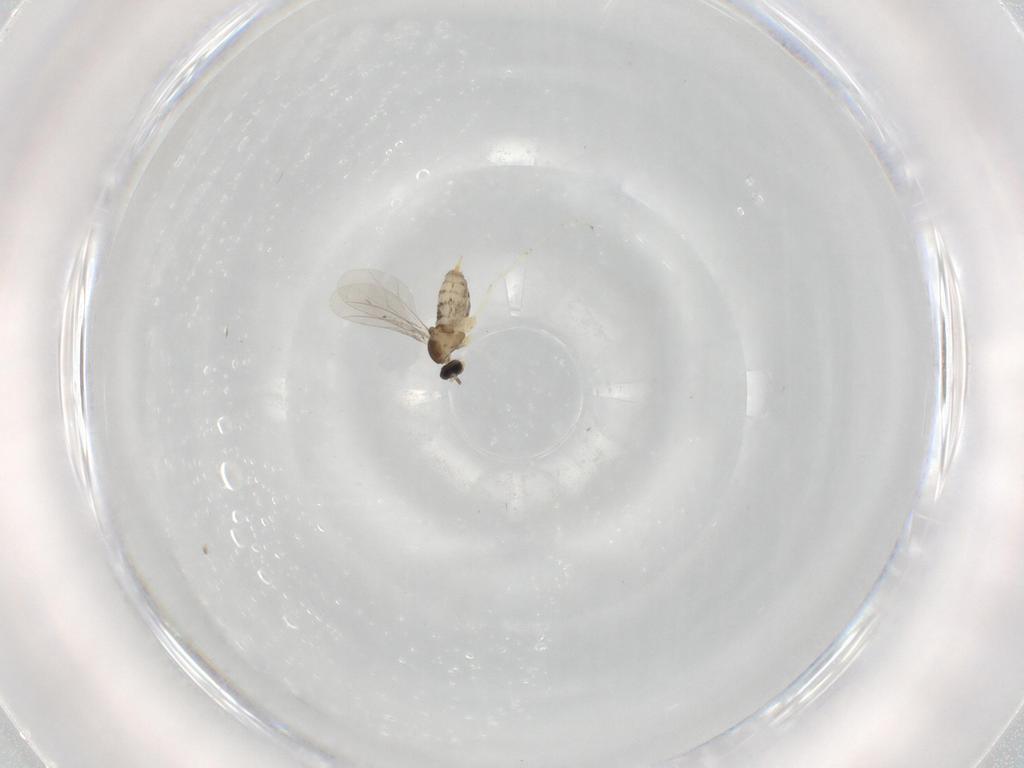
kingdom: Animalia
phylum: Arthropoda
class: Insecta
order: Diptera
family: Cecidomyiidae
